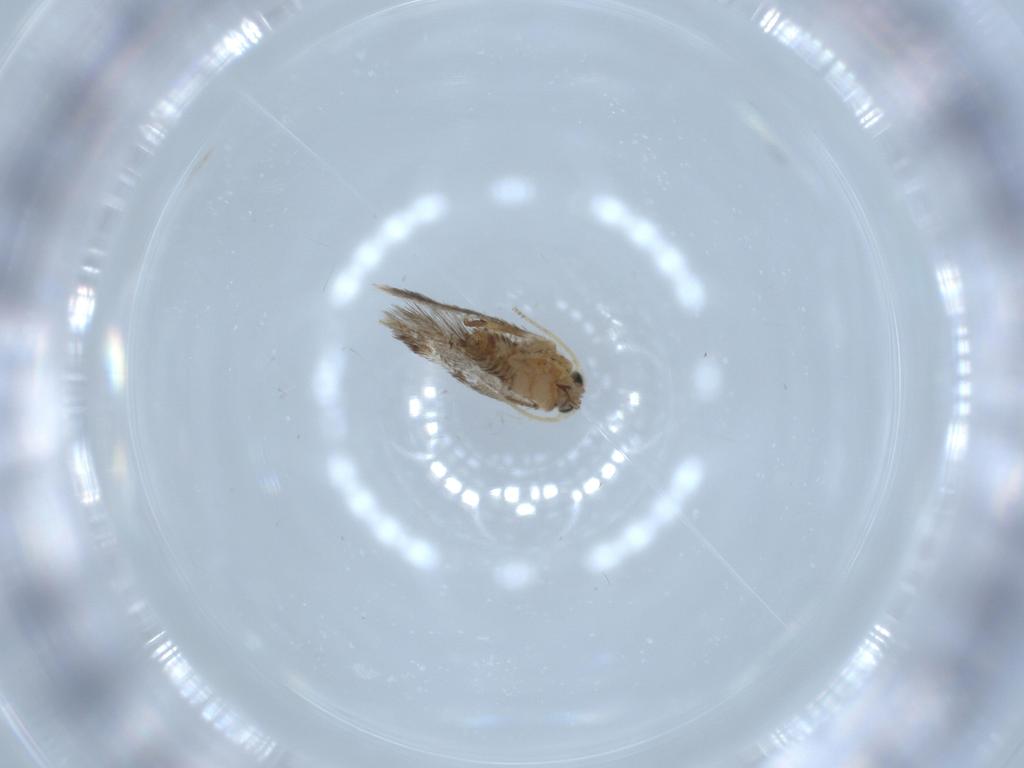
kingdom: Animalia
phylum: Arthropoda
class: Insecta
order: Lepidoptera
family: Nepticulidae
